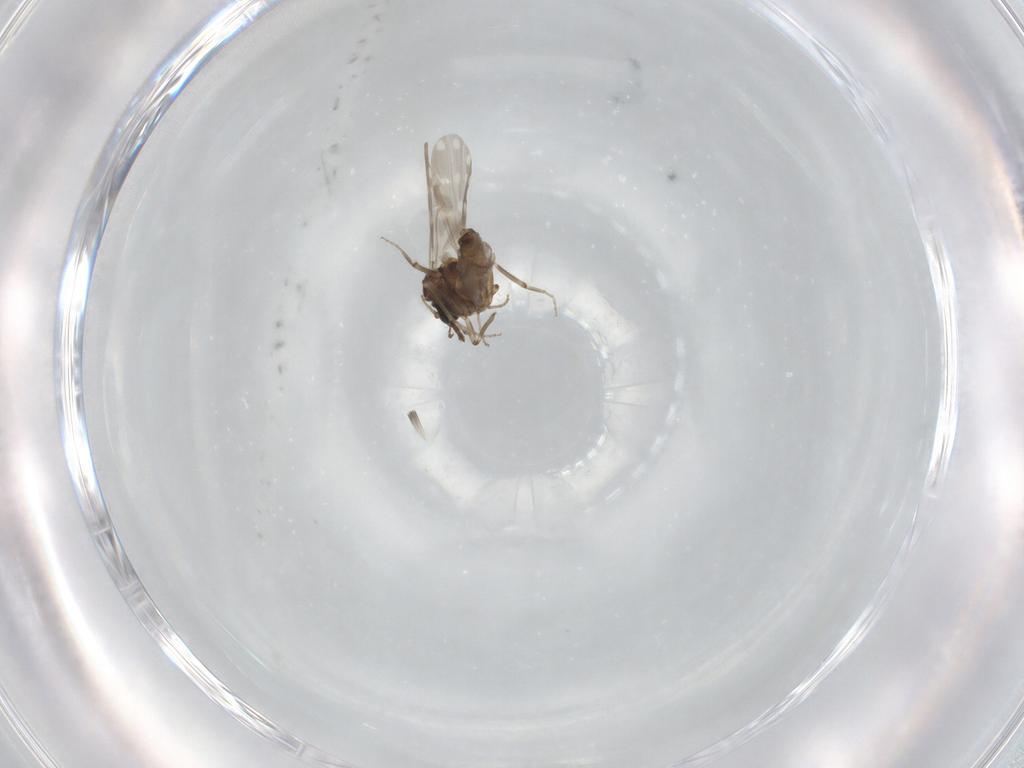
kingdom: Animalia
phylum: Arthropoda
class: Insecta
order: Diptera
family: Ceratopogonidae
